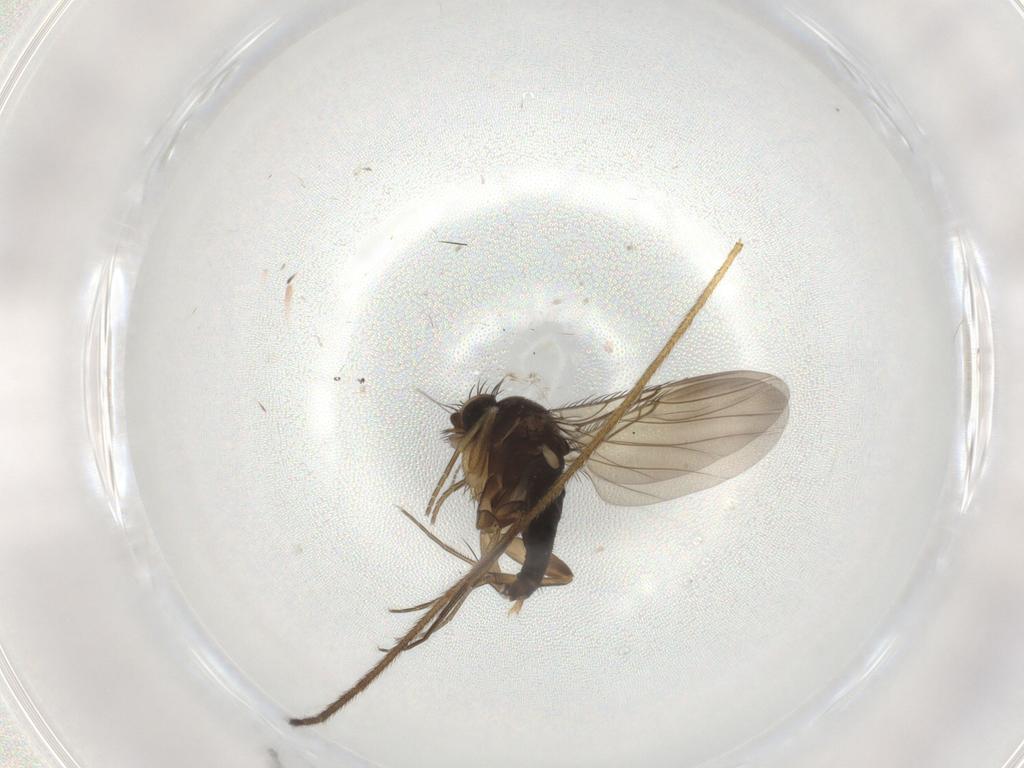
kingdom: Animalia
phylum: Arthropoda
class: Insecta
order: Diptera
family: Phoridae
